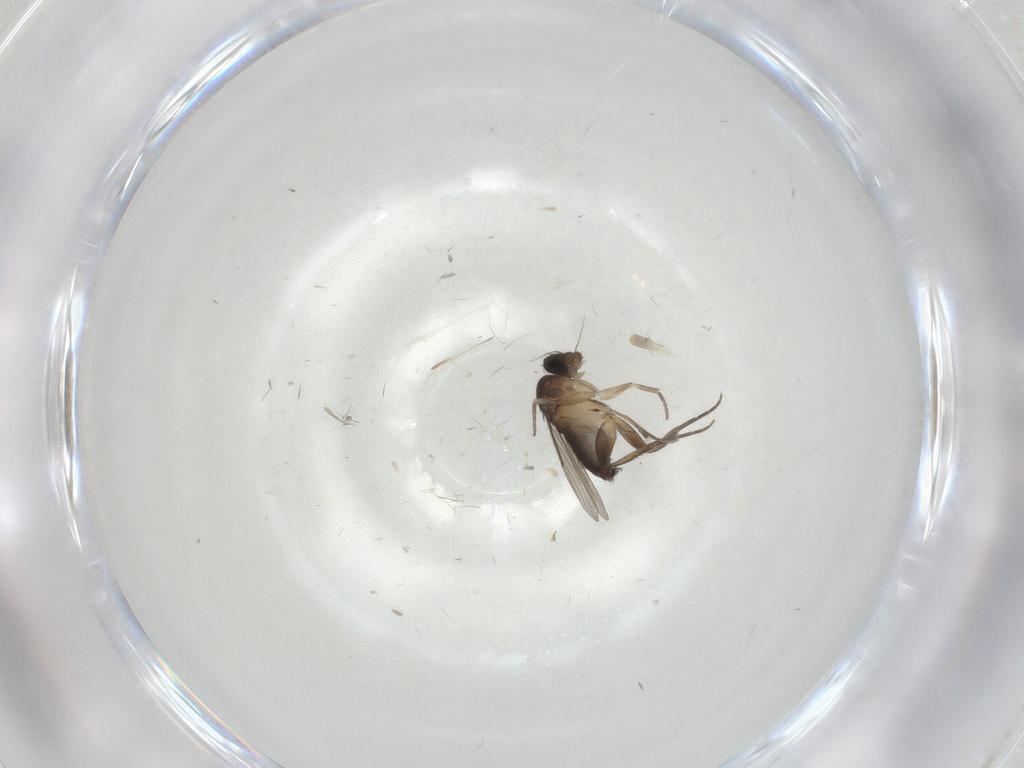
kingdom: Animalia
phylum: Arthropoda
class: Insecta
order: Diptera
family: Phoridae
